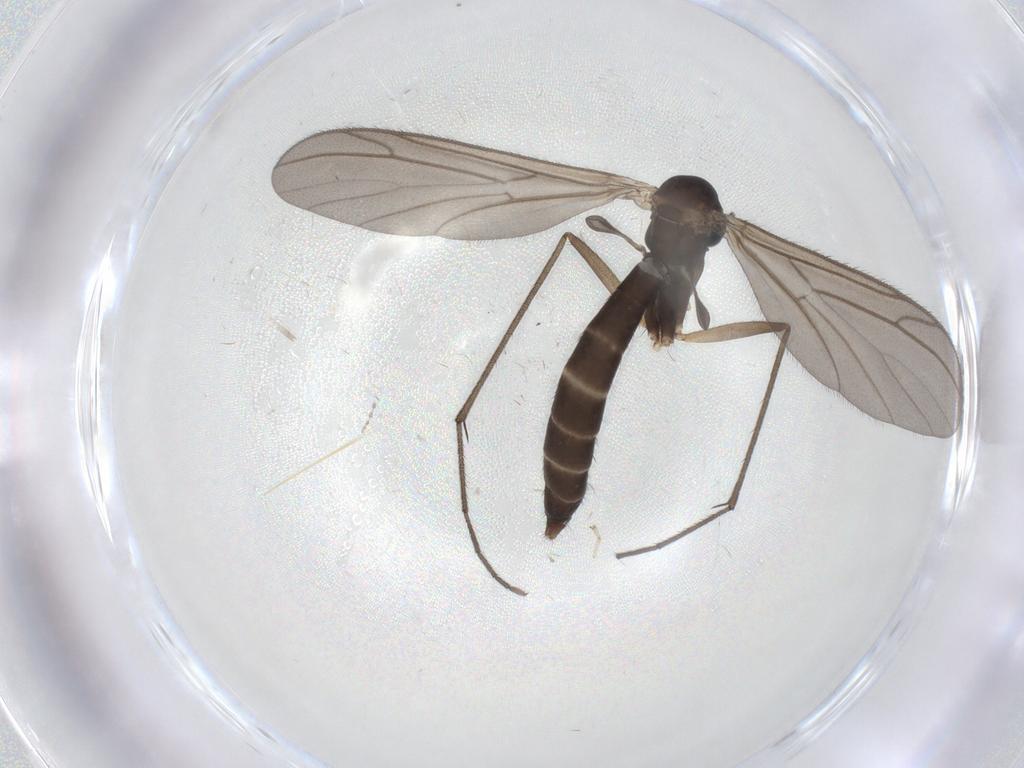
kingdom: Animalia
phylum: Arthropoda
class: Insecta
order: Diptera
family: Ditomyiidae
